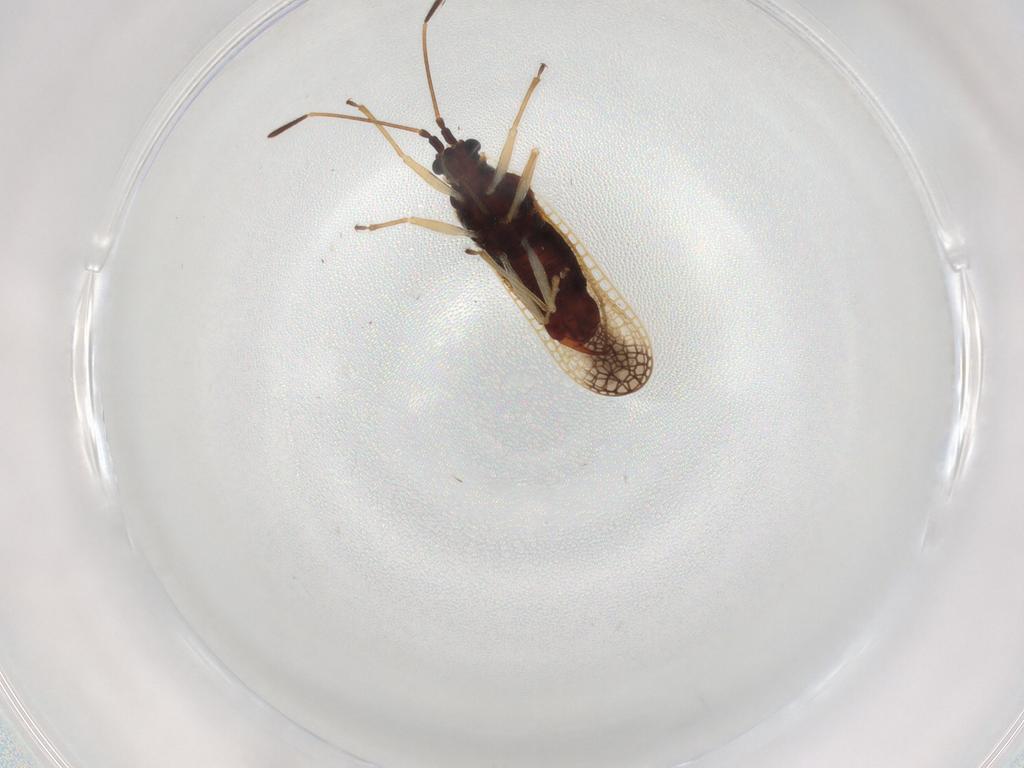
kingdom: Animalia
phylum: Arthropoda
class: Insecta
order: Hemiptera
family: Tingidae
